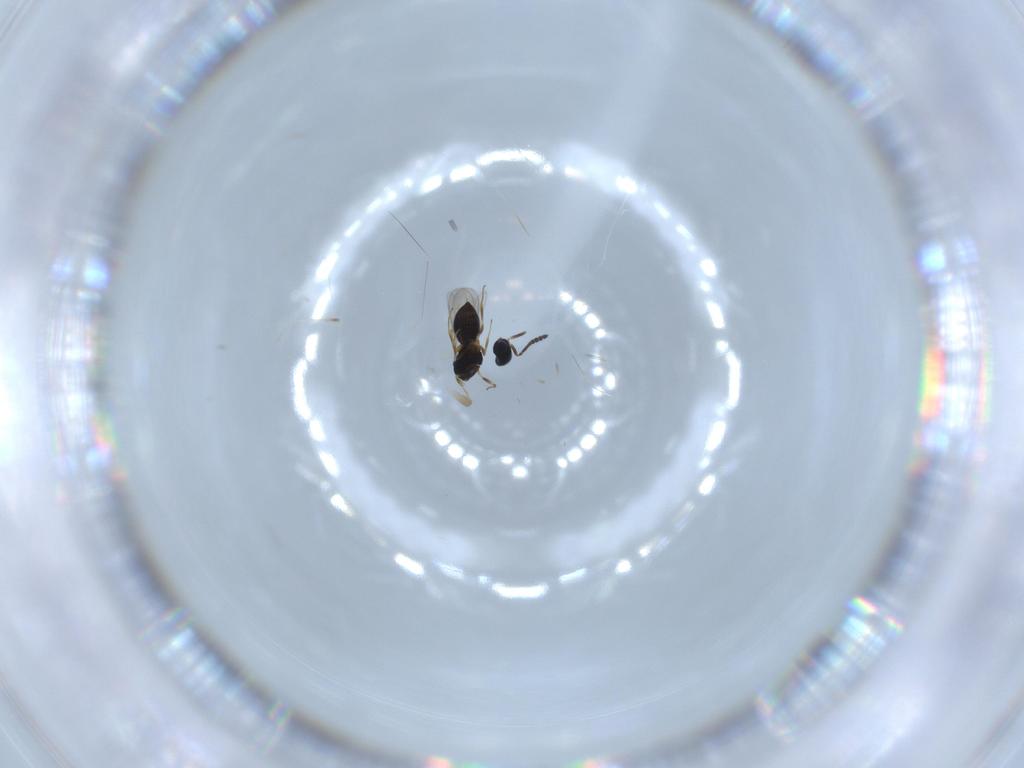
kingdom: Animalia
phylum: Arthropoda
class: Insecta
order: Hymenoptera
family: Scelionidae
